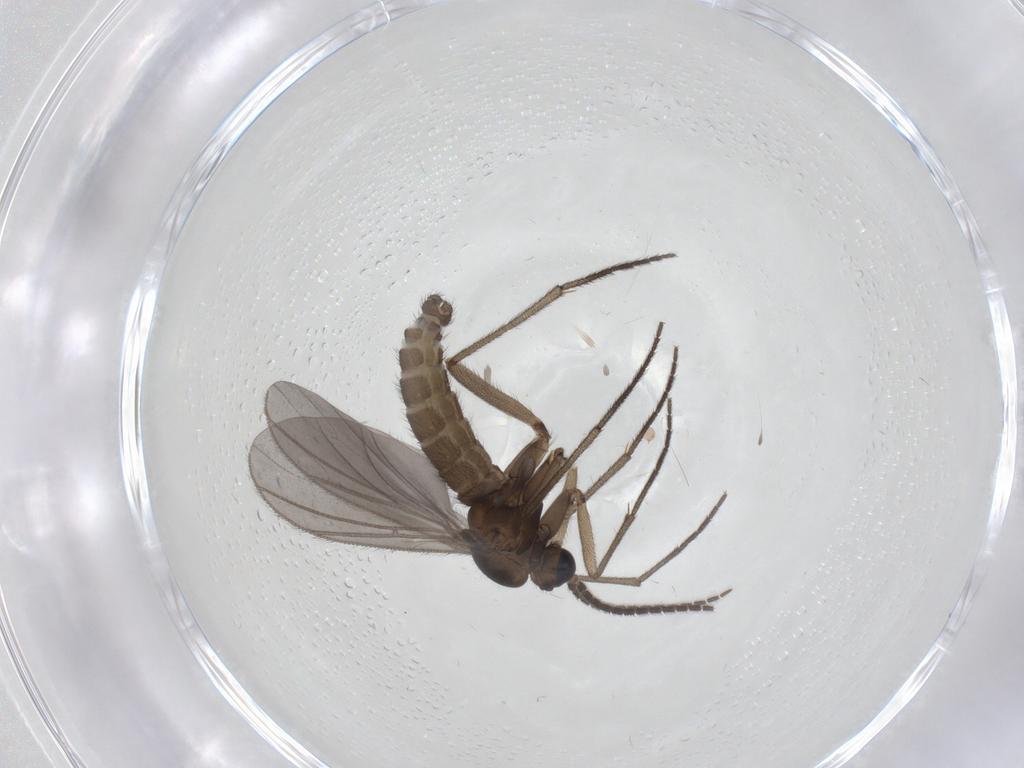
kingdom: Animalia
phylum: Arthropoda
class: Insecta
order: Diptera
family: Sciaridae
